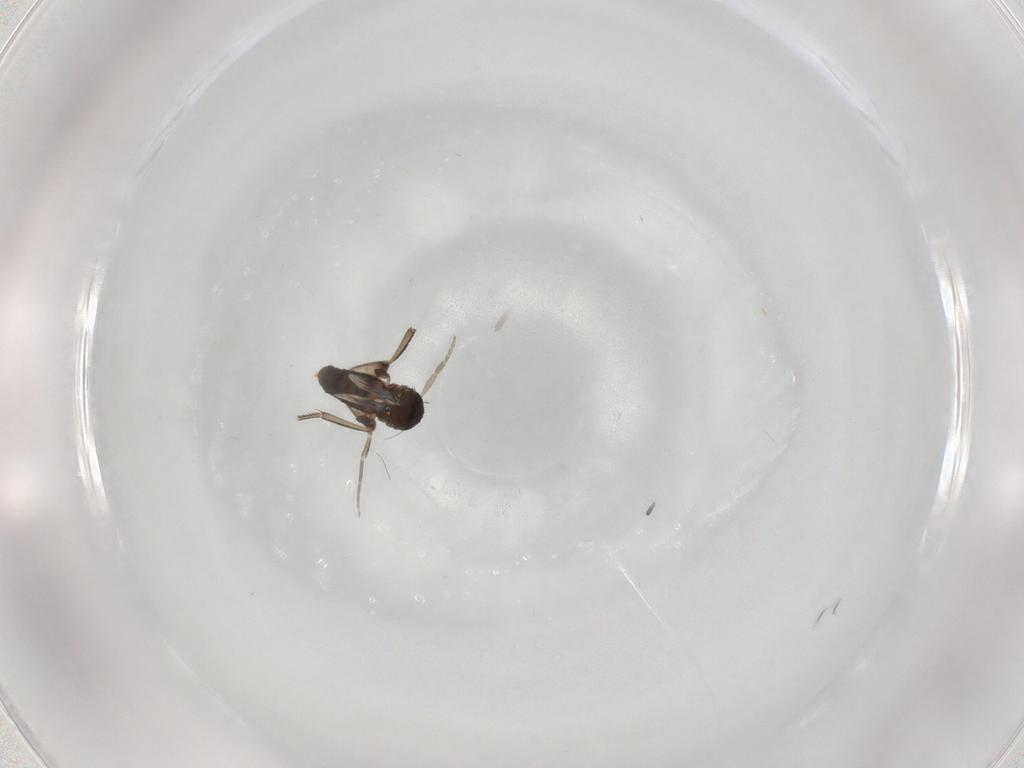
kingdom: Animalia
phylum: Arthropoda
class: Insecta
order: Diptera
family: Phoridae
